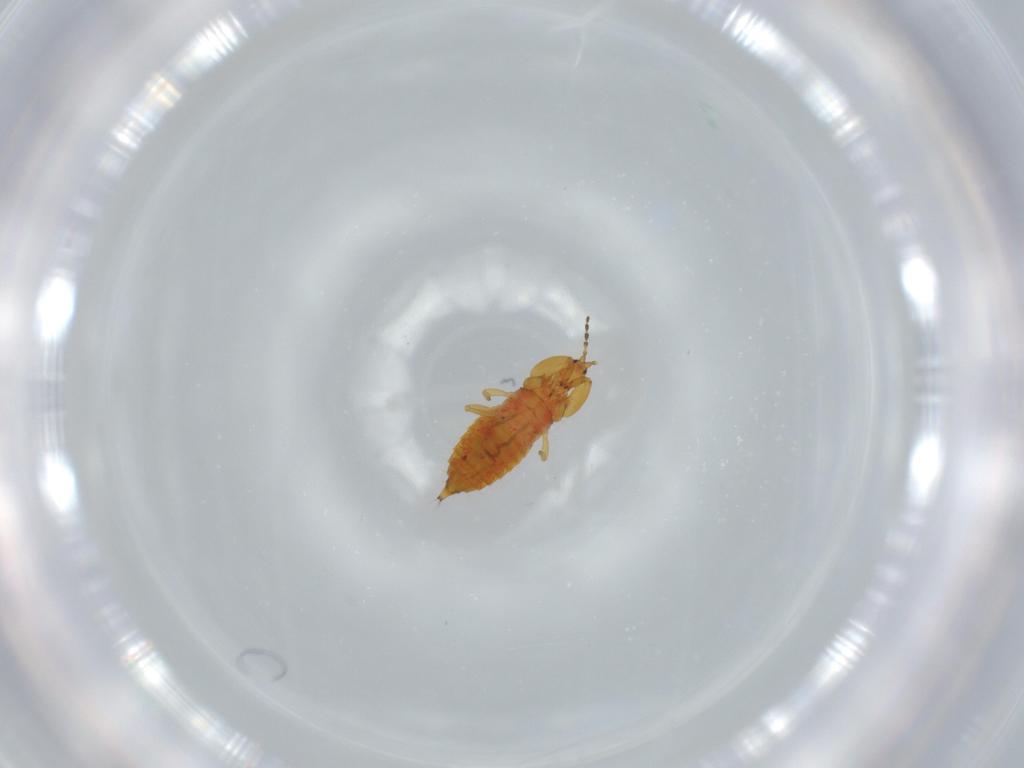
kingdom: Animalia
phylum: Arthropoda
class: Insecta
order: Thysanoptera
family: Phlaeothripidae
